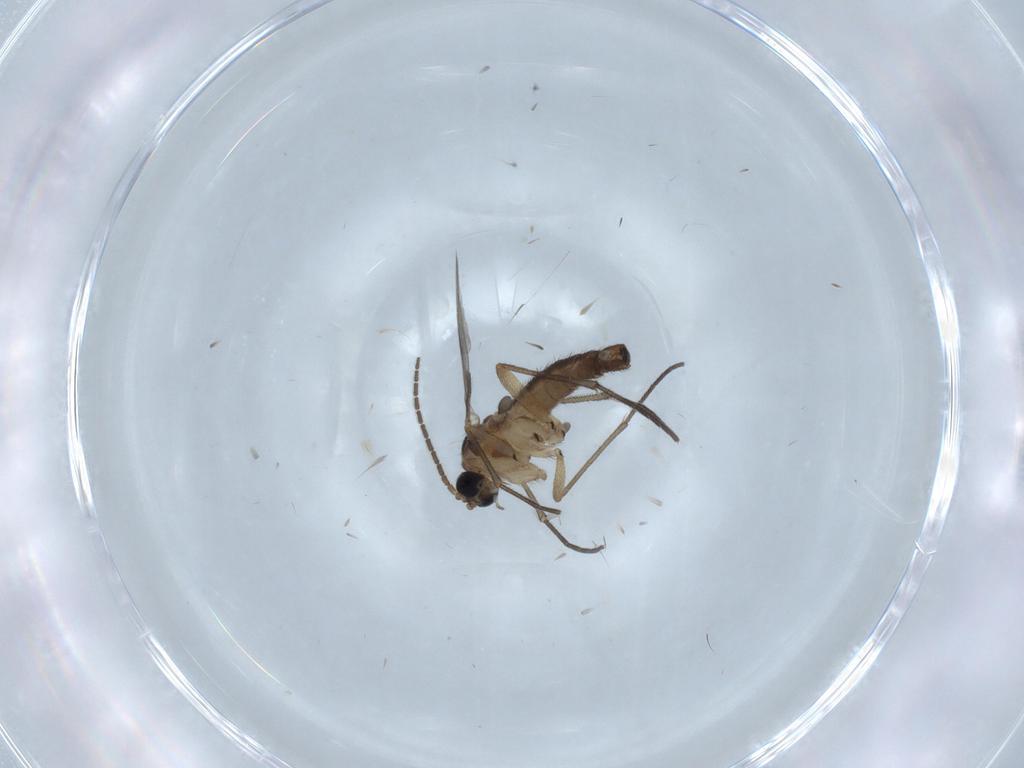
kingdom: Animalia
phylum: Arthropoda
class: Insecta
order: Diptera
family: Sciaridae
